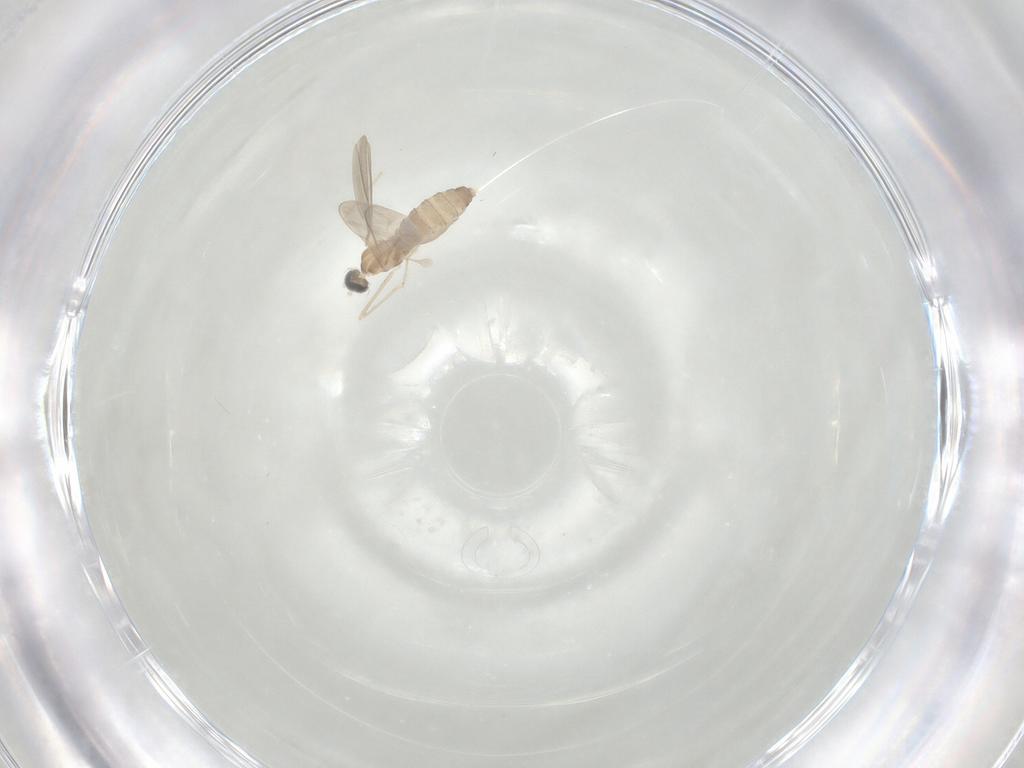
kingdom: Animalia
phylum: Arthropoda
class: Insecta
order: Diptera
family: Cecidomyiidae
